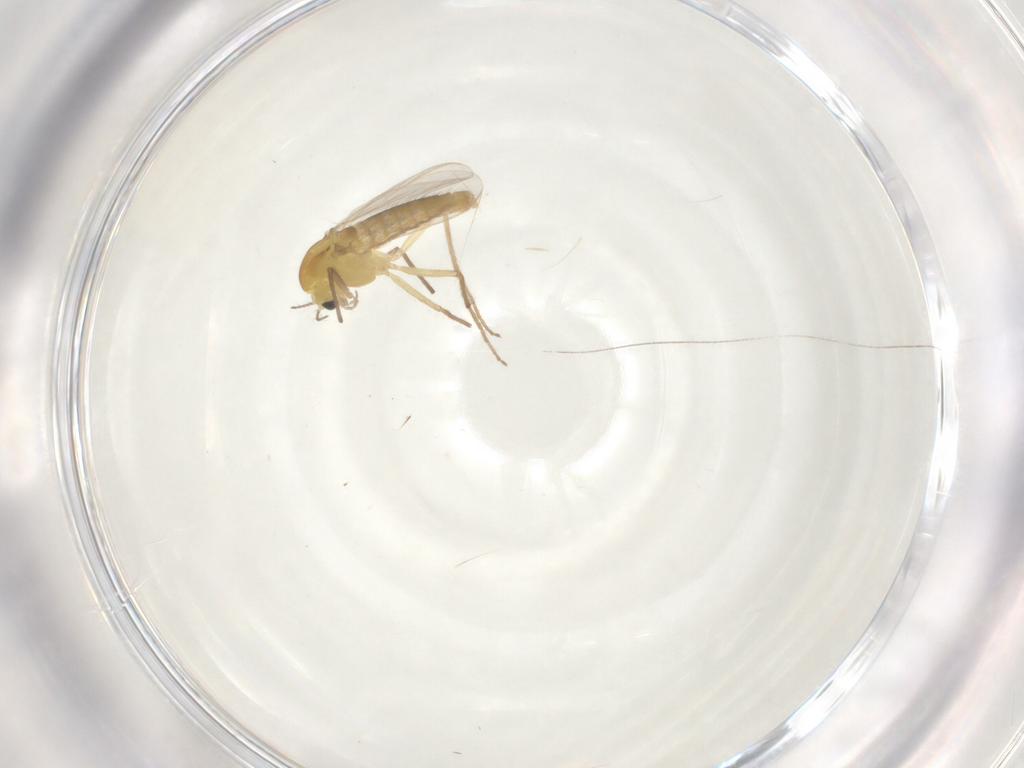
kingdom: Animalia
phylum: Arthropoda
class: Insecta
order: Diptera
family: Chironomidae
